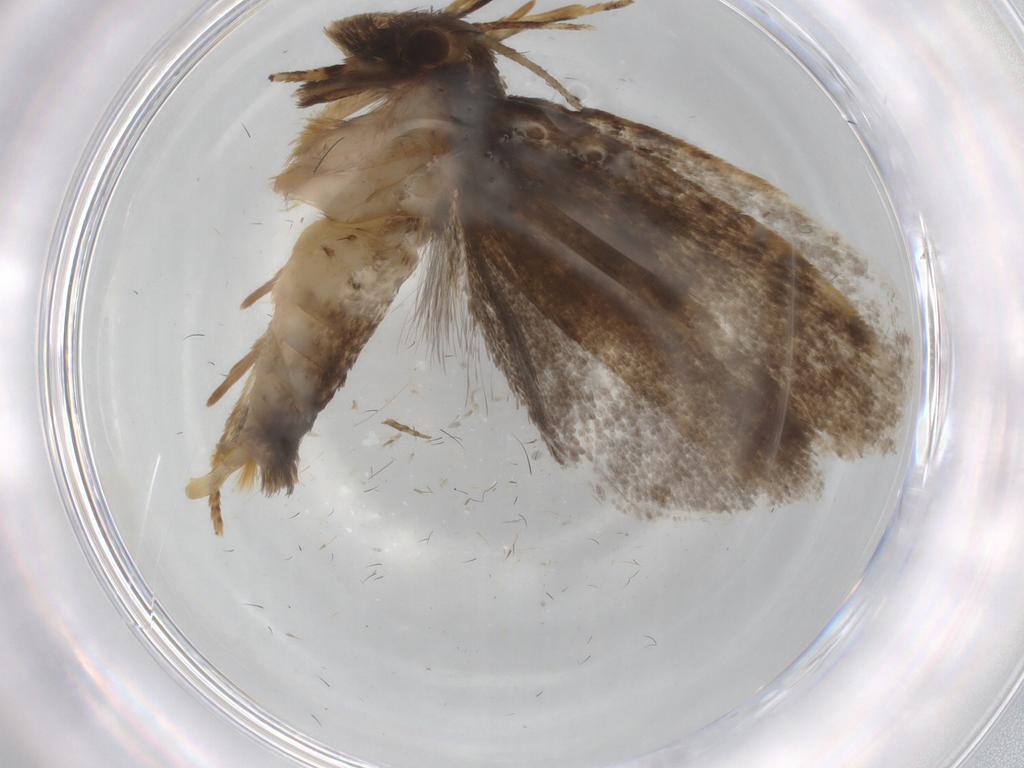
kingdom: Animalia
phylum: Arthropoda
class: Insecta
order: Lepidoptera
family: Tineidae
